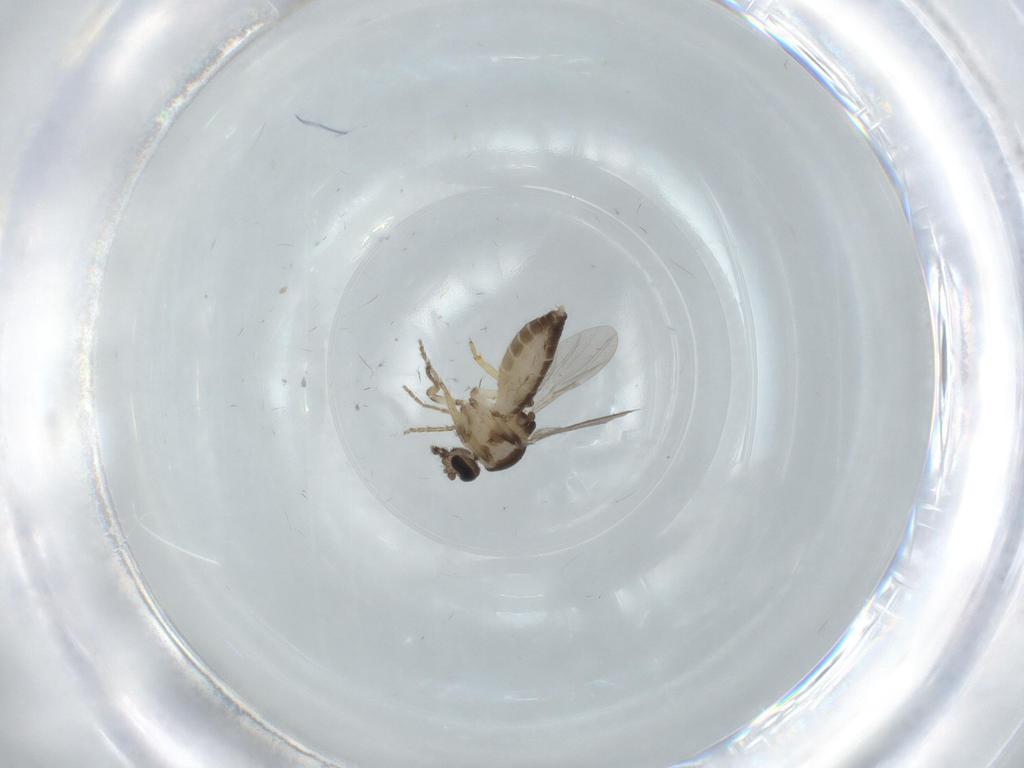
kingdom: Animalia
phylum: Arthropoda
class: Insecta
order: Diptera
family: Ceratopogonidae
